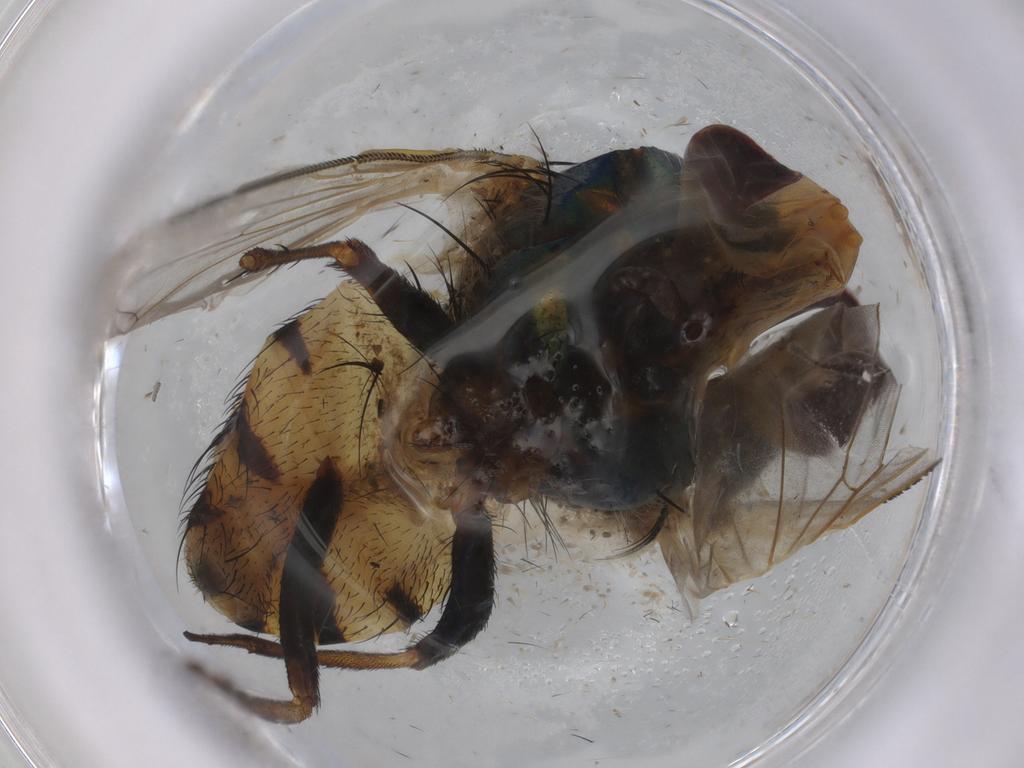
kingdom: Animalia
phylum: Arthropoda
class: Insecta
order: Diptera
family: Hybotidae
